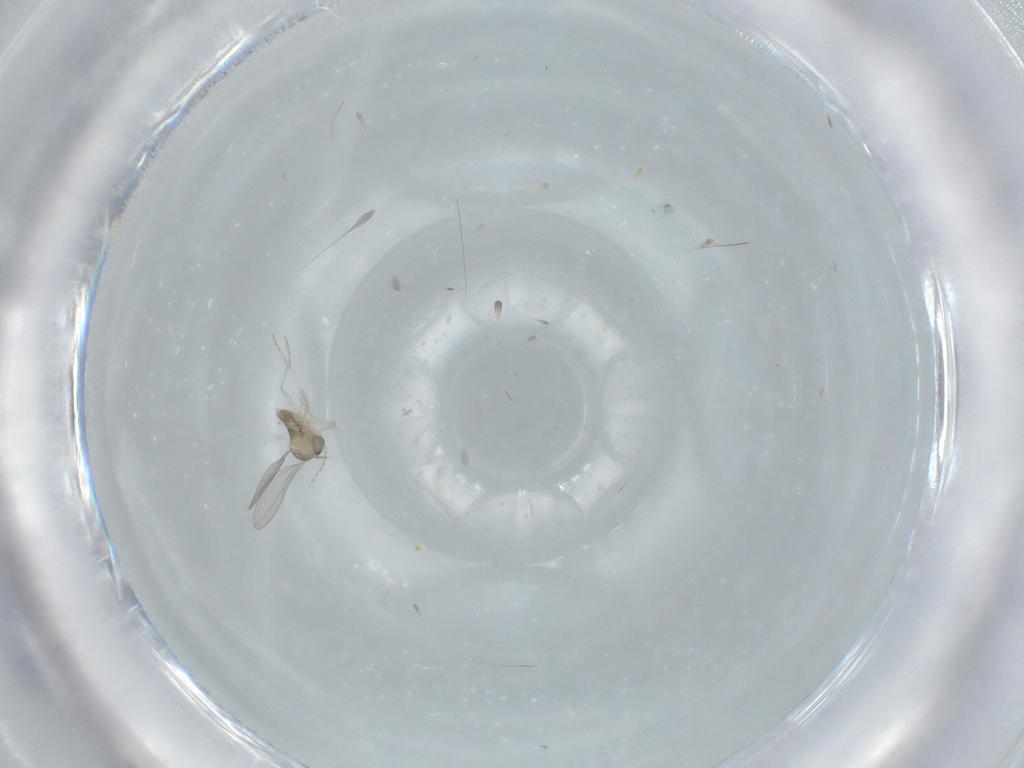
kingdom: Animalia
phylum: Arthropoda
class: Insecta
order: Diptera
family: Cecidomyiidae
